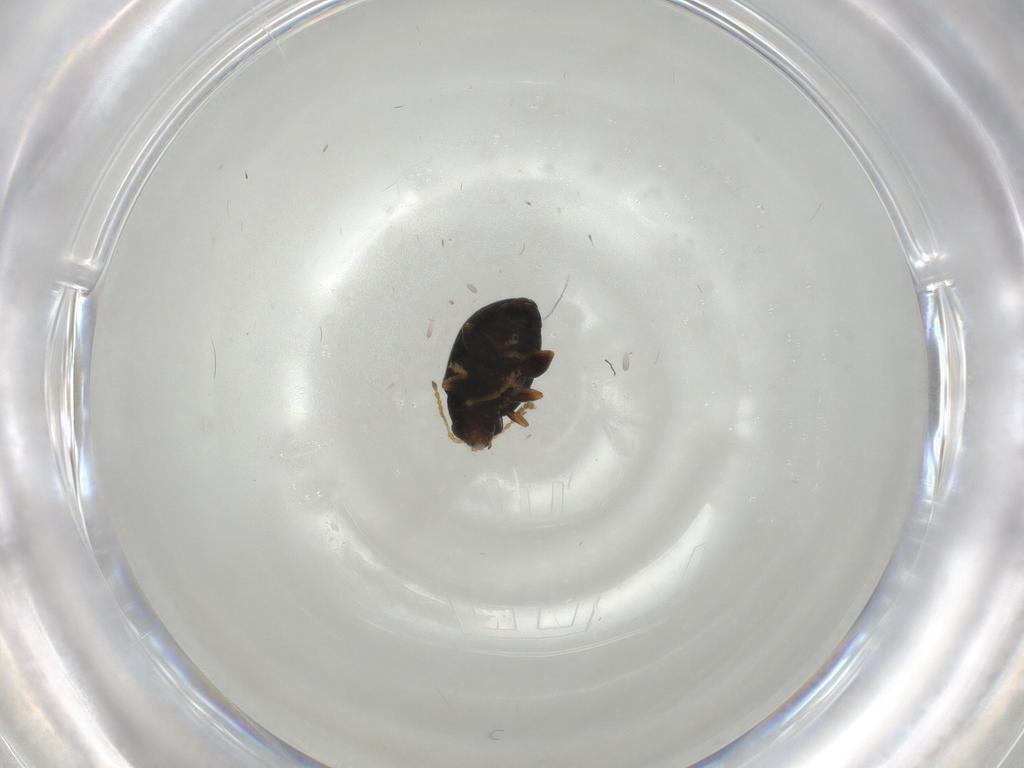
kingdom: Animalia
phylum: Arthropoda
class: Insecta
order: Coleoptera
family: Chrysomelidae
